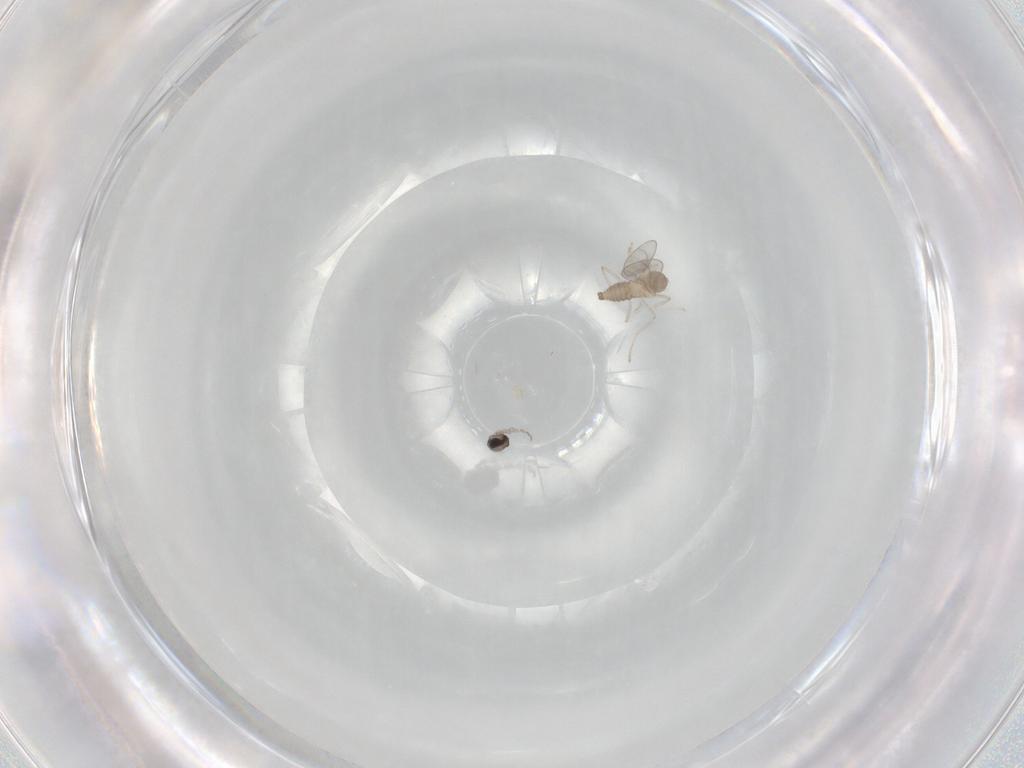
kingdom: Animalia
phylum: Arthropoda
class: Insecta
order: Diptera
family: Cecidomyiidae
